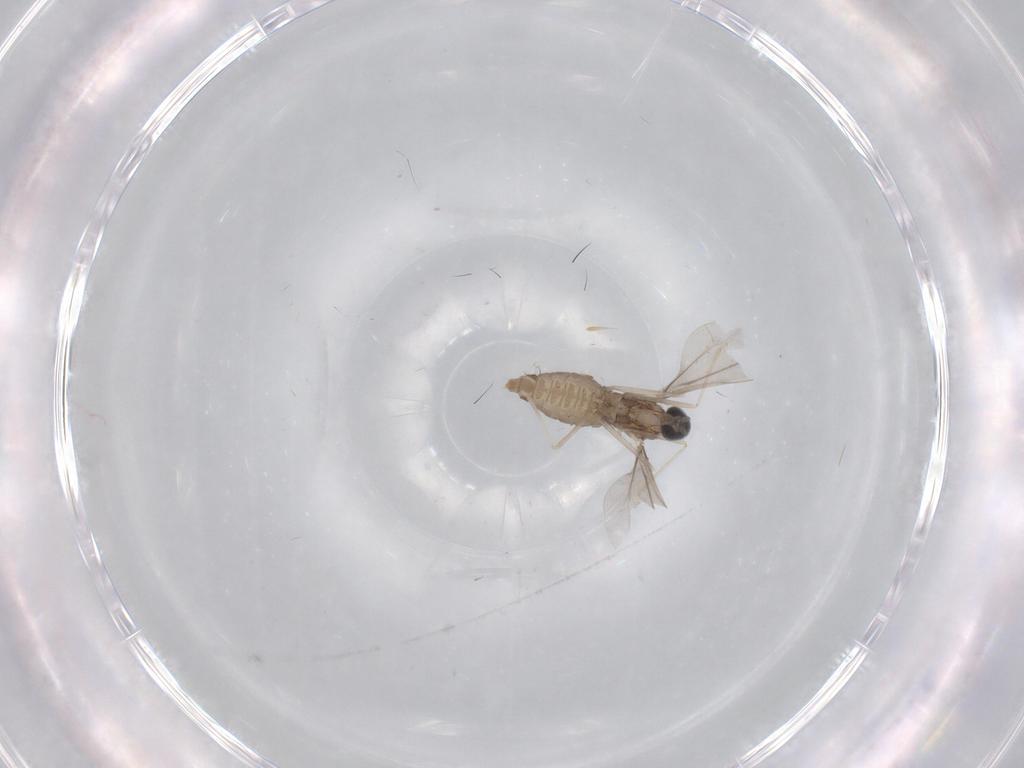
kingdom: Animalia
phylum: Arthropoda
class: Insecta
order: Diptera
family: Cecidomyiidae
